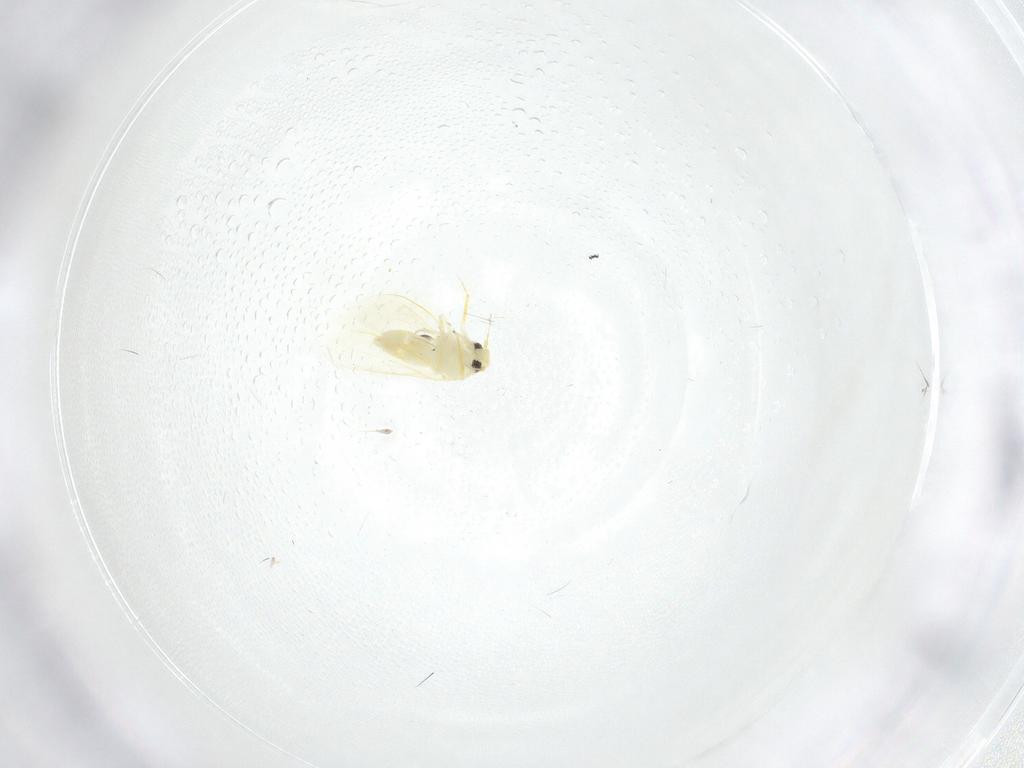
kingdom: Animalia
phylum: Arthropoda
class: Insecta
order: Hemiptera
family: Aleyrodidae
